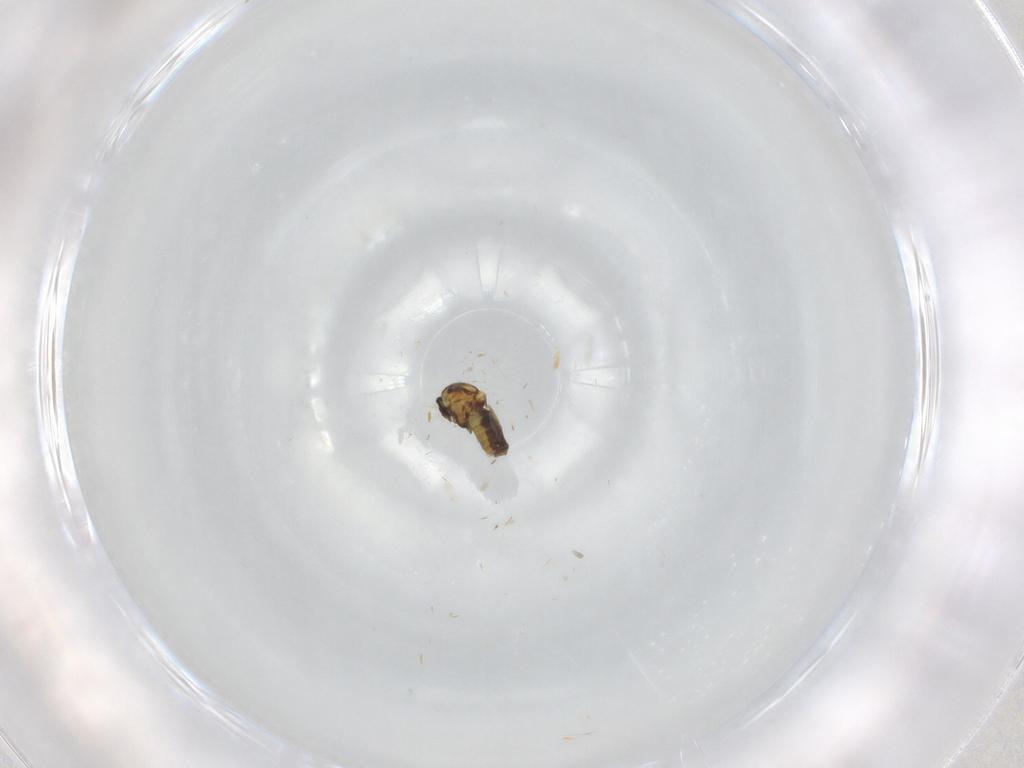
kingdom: Animalia
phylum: Arthropoda
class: Insecta
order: Diptera
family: Ceratopogonidae
